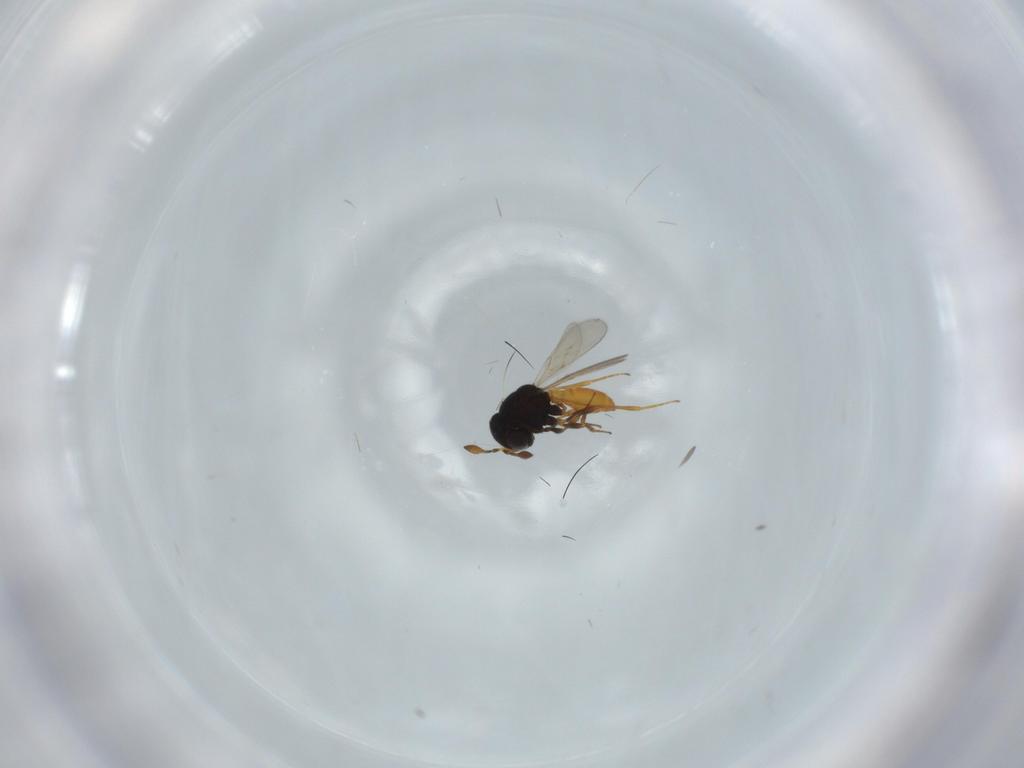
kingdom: Animalia
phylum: Arthropoda
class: Insecta
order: Hymenoptera
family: Scelionidae
